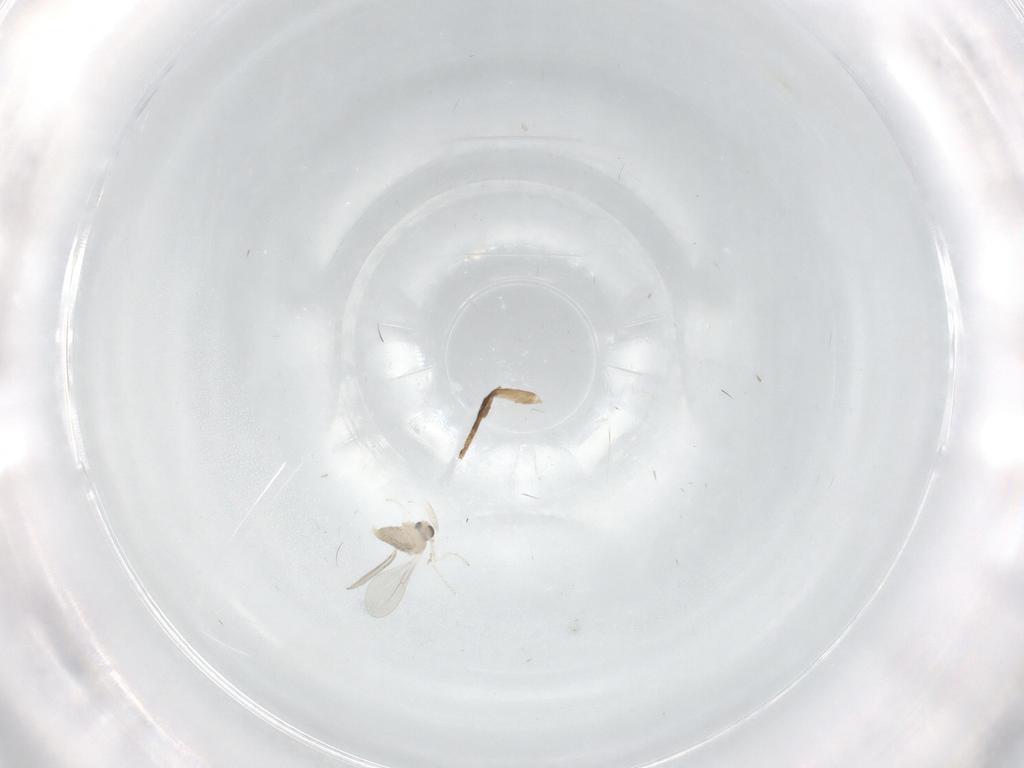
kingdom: Animalia
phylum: Arthropoda
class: Insecta
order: Diptera
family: Cecidomyiidae
